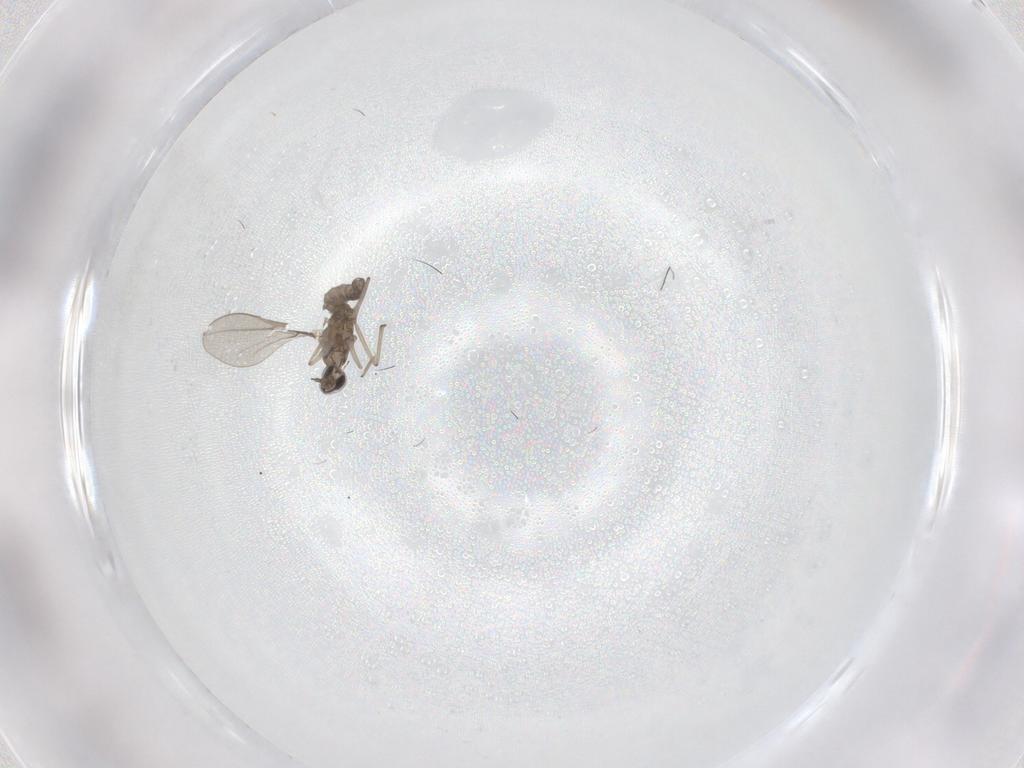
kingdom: Animalia
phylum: Arthropoda
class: Insecta
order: Diptera
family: Cecidomyiidae
